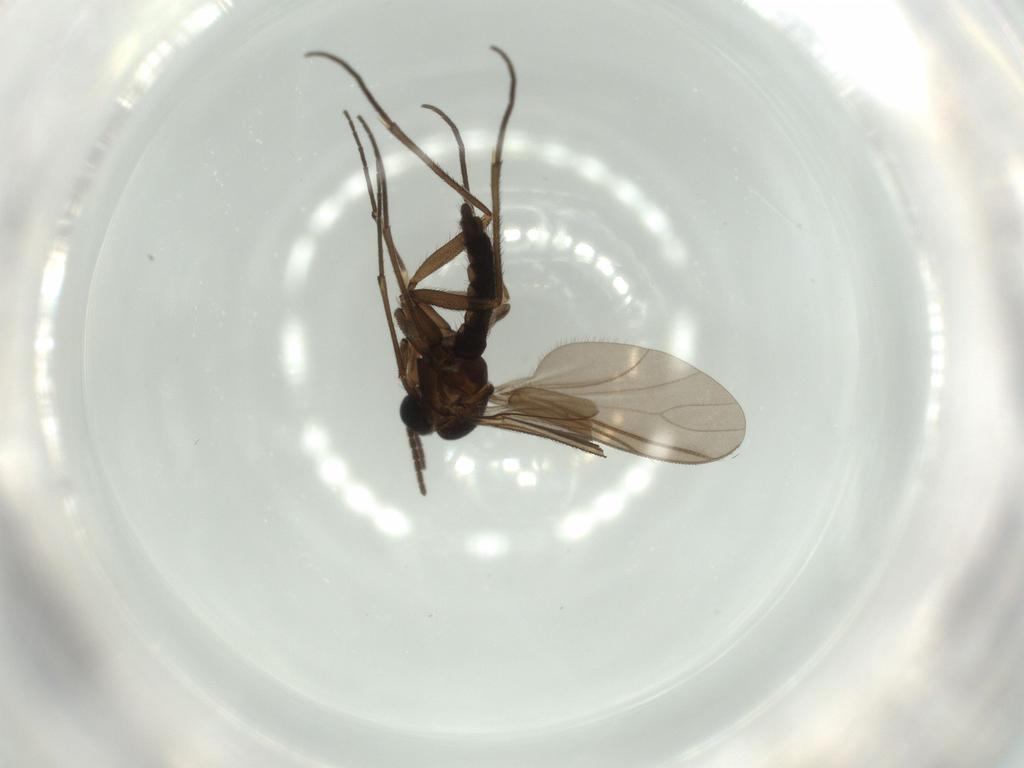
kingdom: Animalia
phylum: Arthropoda
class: Insecta
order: Diptera
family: Sciaridae
